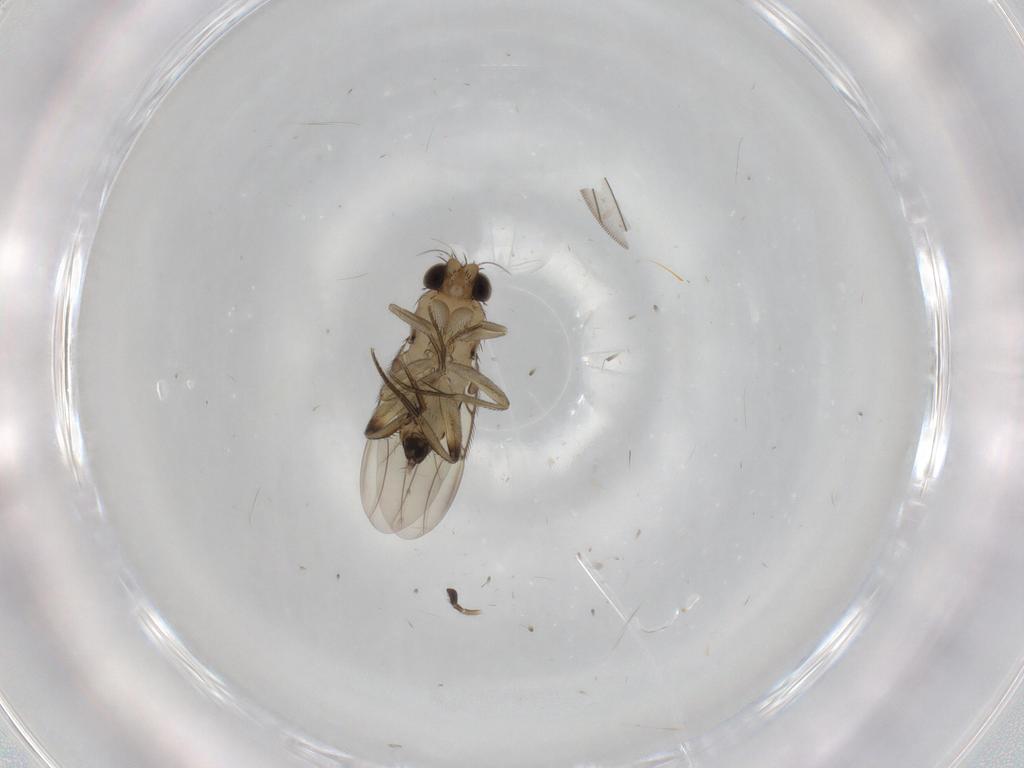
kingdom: Animalia
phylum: Arthropoda
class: Insecta
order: Diptera
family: Phoridae
